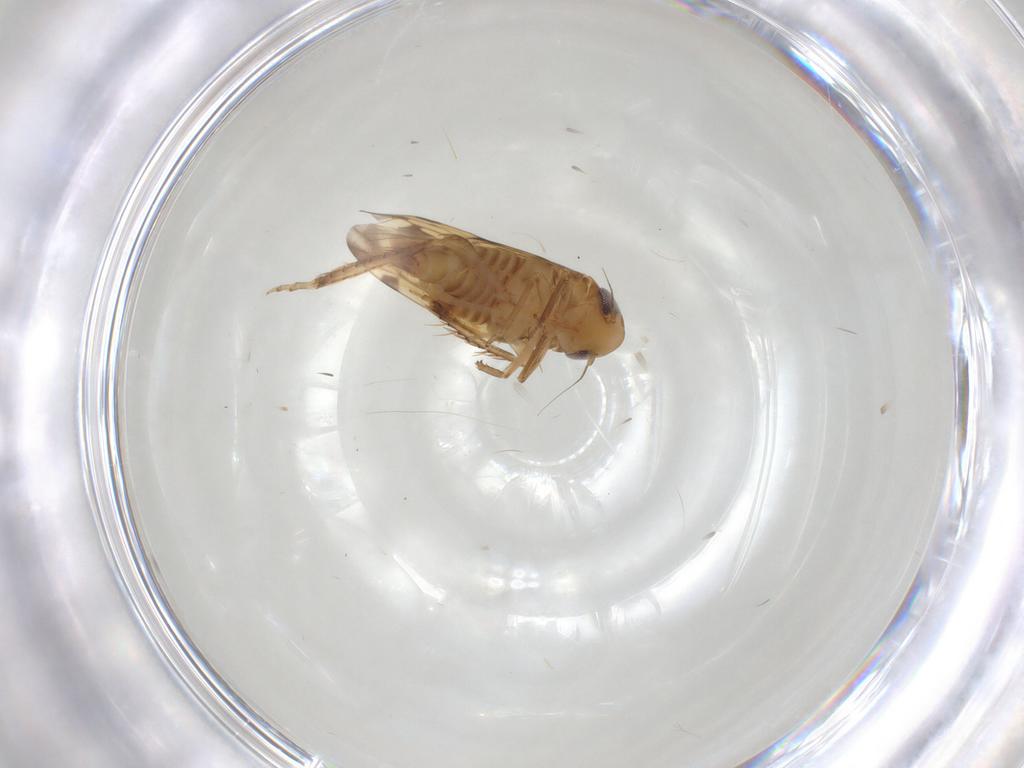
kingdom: Animalia
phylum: Arthropoda
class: Insecta
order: Hemiptera
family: Cicadellidae
